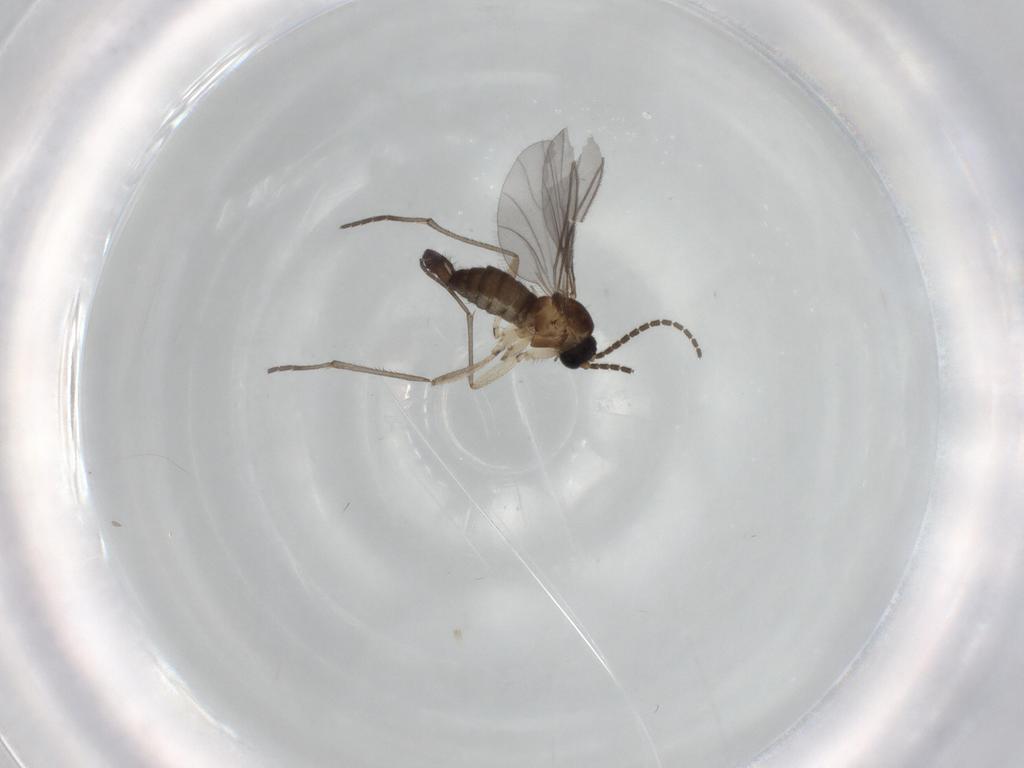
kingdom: Animalia
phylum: Arthropoda
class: Insecta
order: Diptera
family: Sciaridae
